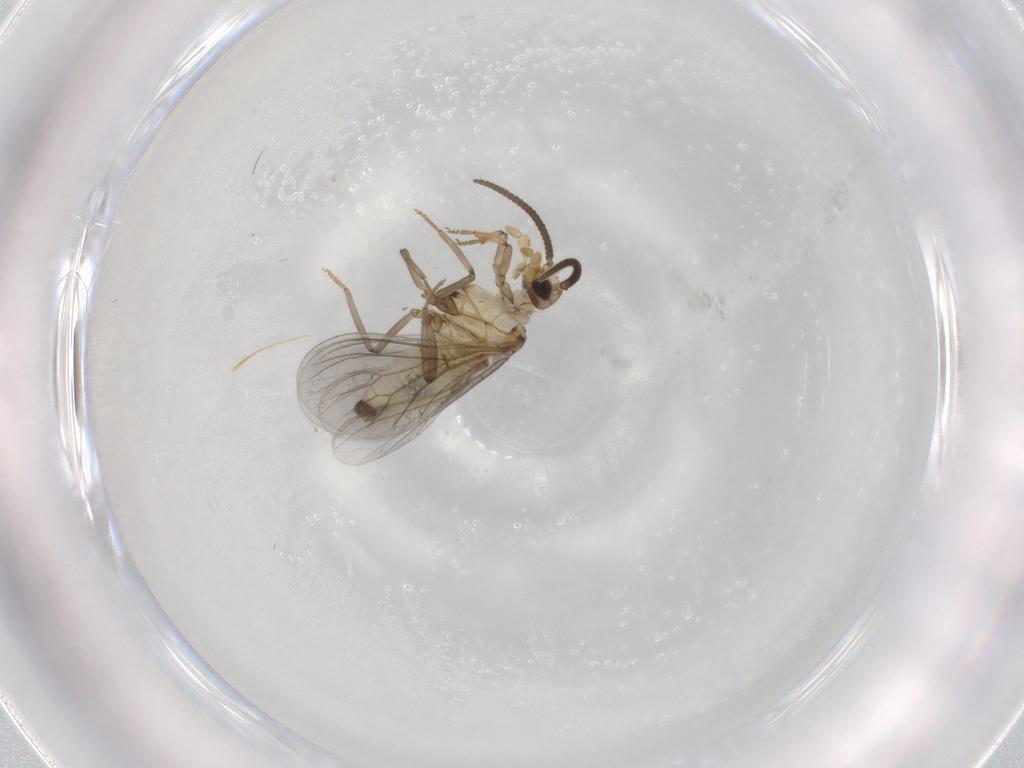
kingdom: Animalia
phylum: Arthropoda
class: Insecta
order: Neuroptera
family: Coniopterygidae
